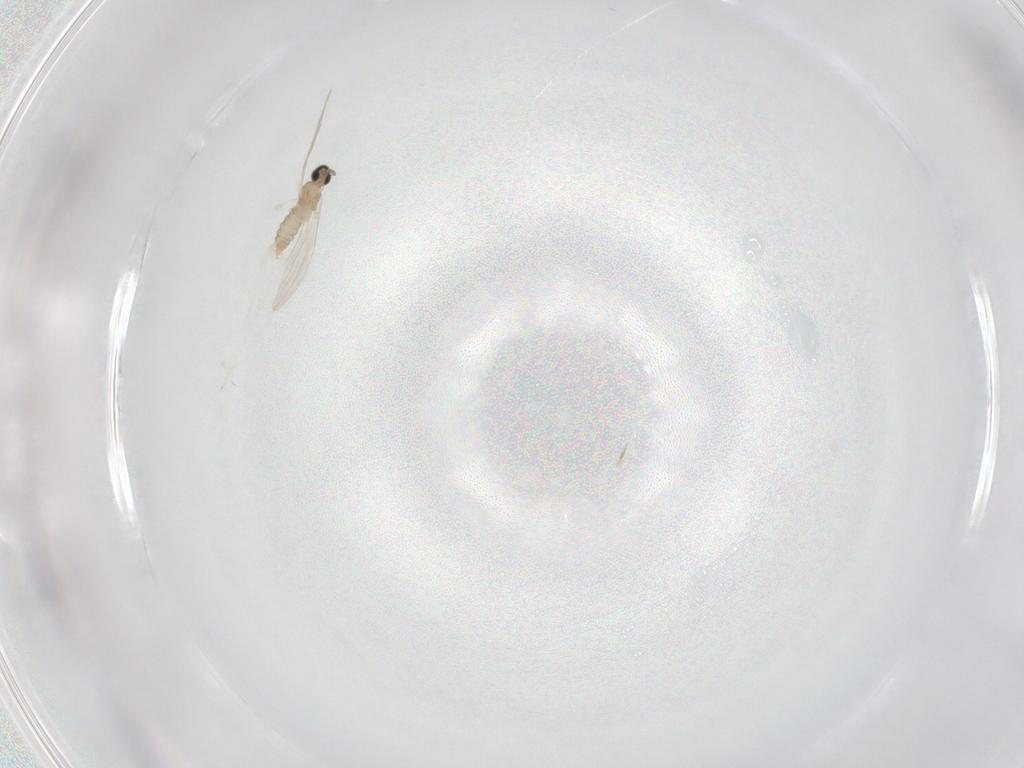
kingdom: Animalia
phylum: Arthropoda
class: Insecta
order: Diptera
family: Cecidomyiidae
